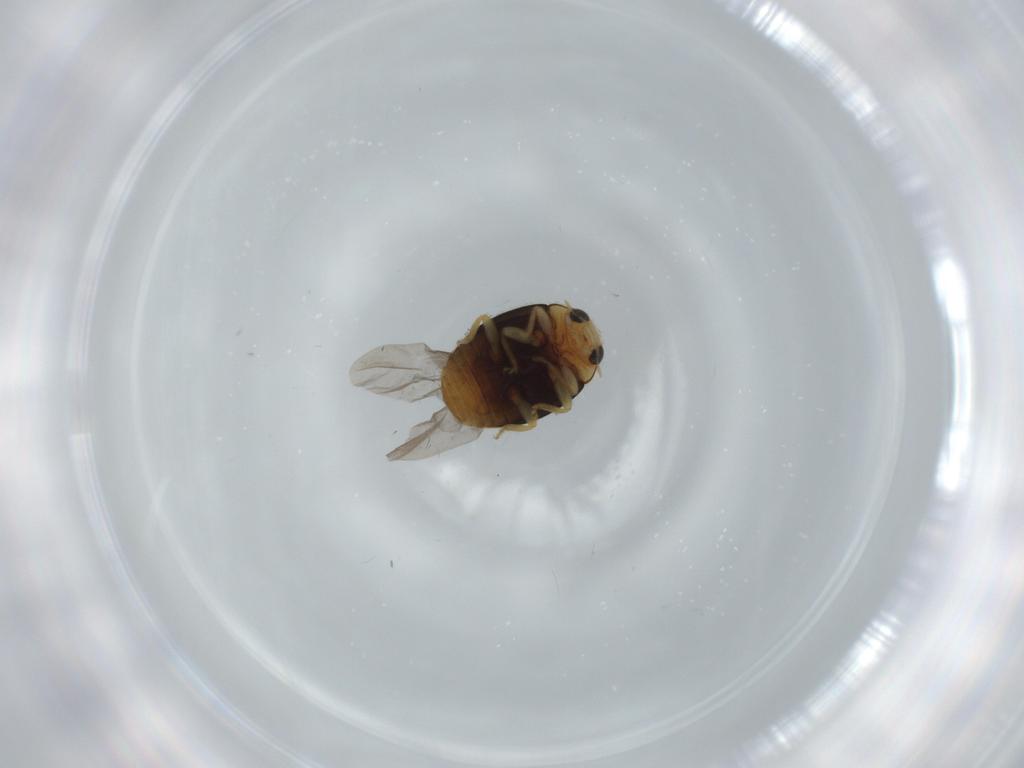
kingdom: Animalia
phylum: Arthropoda
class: Insecta
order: Coleoptera
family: Coccinellidae
